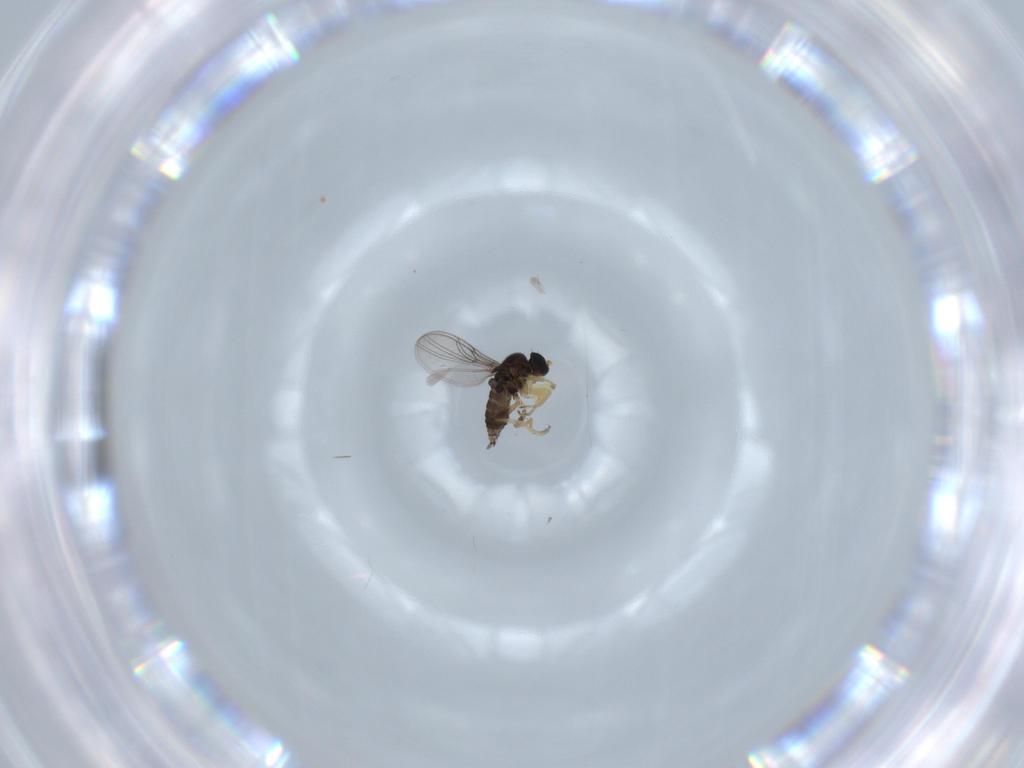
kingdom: Animalia
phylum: Arthropoda
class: Insecta
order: Diptera
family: Hybotidae
